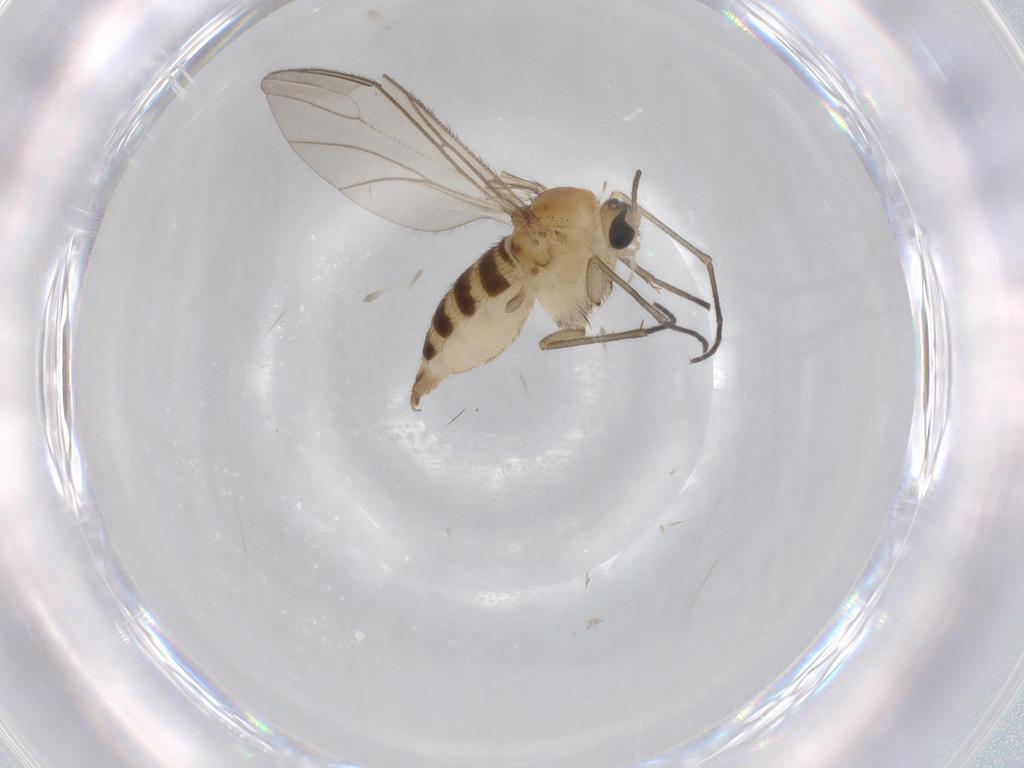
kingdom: Animalia
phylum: Arthropoda
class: Insecta
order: Diptera
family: Sciaridae
